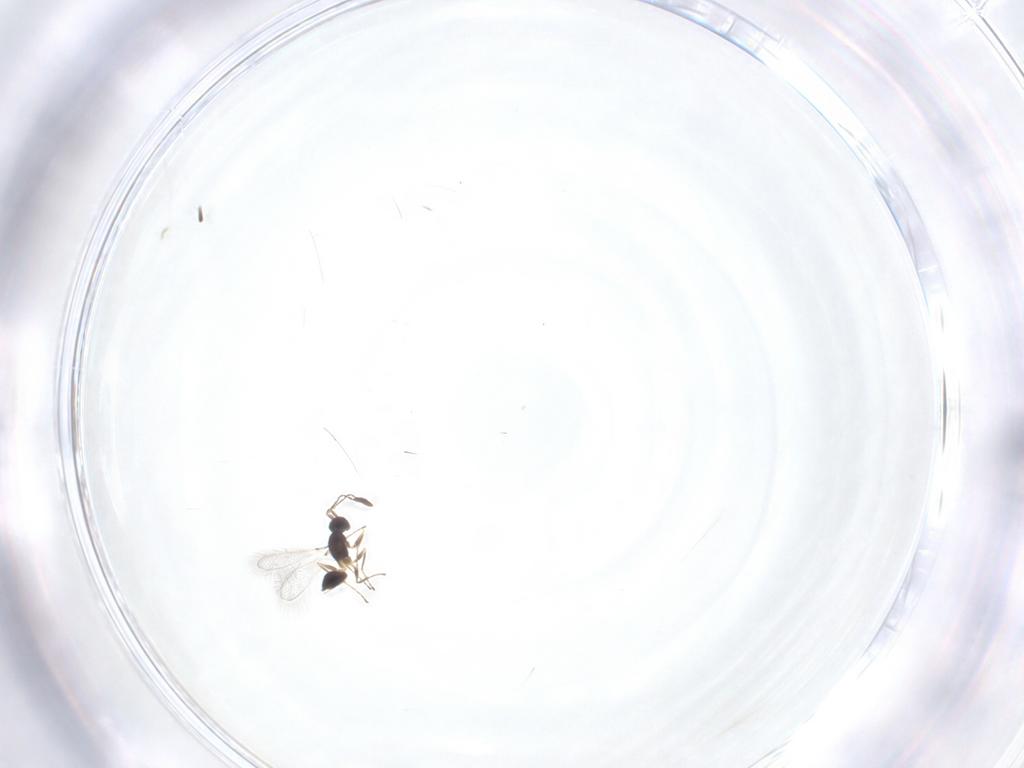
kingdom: Animalia
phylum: Arthropoda
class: Insecta
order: Hymenoptera
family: Mymaridae
